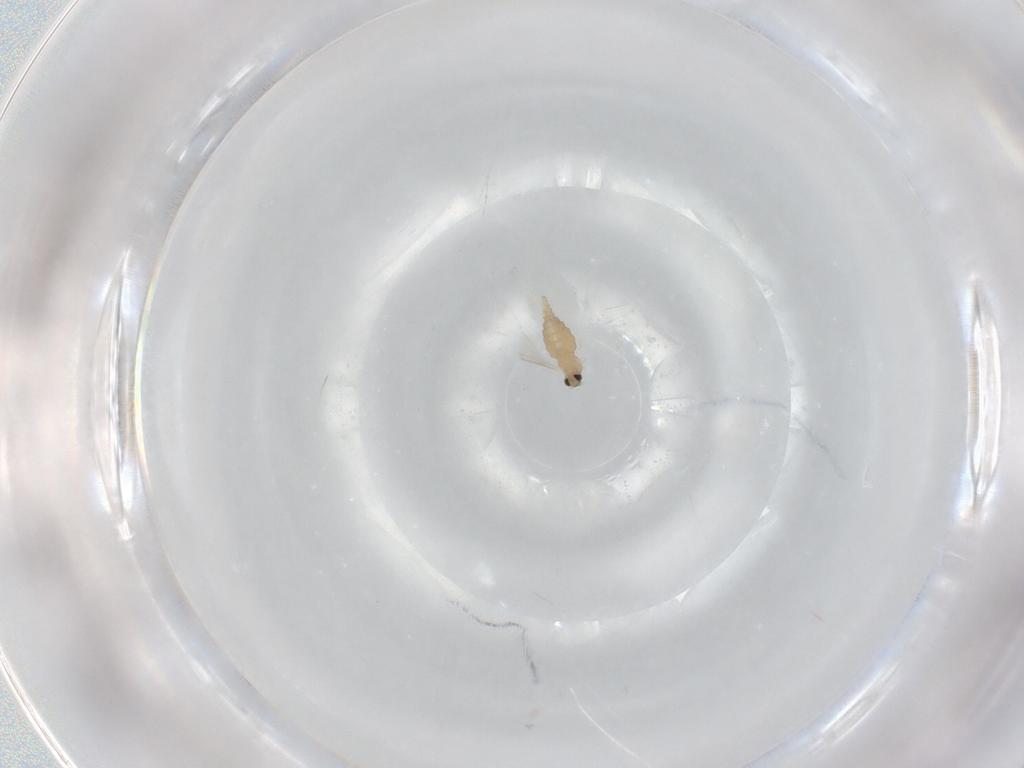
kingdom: Animalia
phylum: Arthropoda
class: Insecta
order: Diptera
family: Cecidomyiidae
